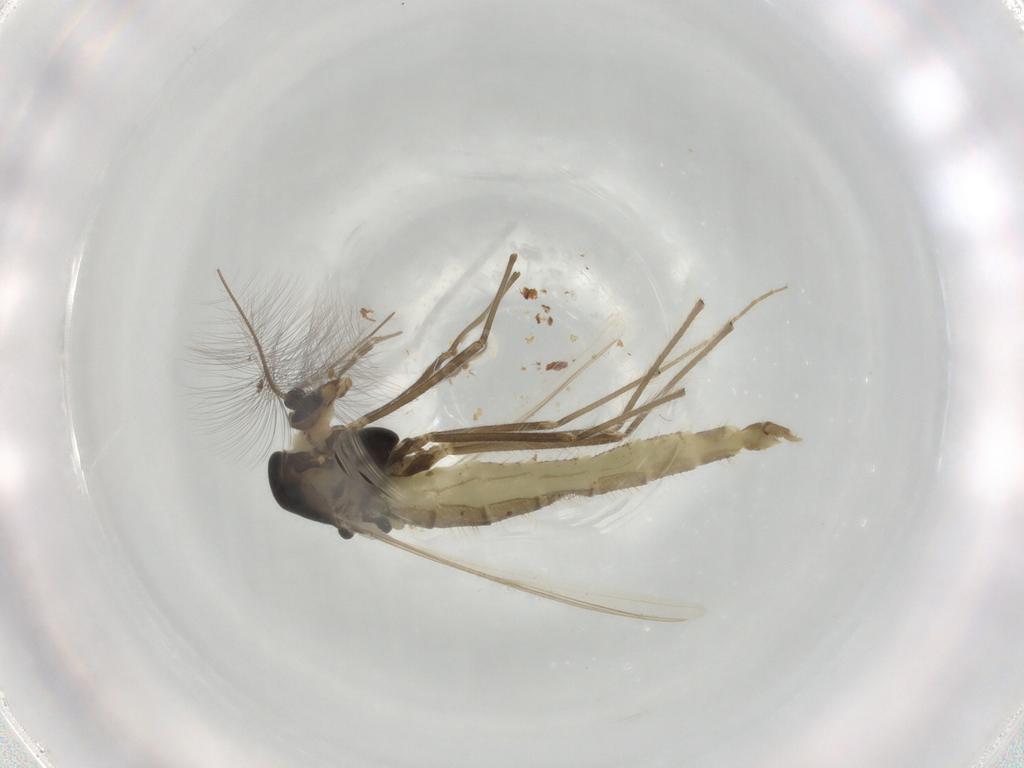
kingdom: Animalia
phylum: Arthropoda
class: Insecta
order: Diptera
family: Chironomidae
